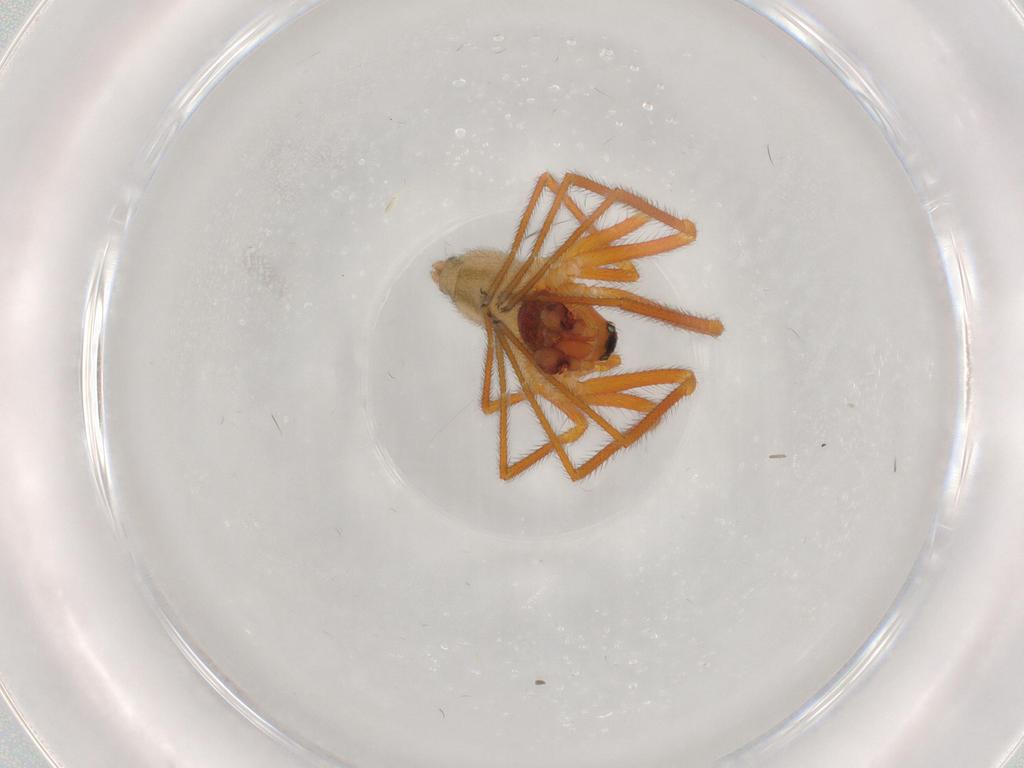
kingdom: Animalia
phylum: Arthropoda
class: Arachnida
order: Araneae
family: Linyphiidae
